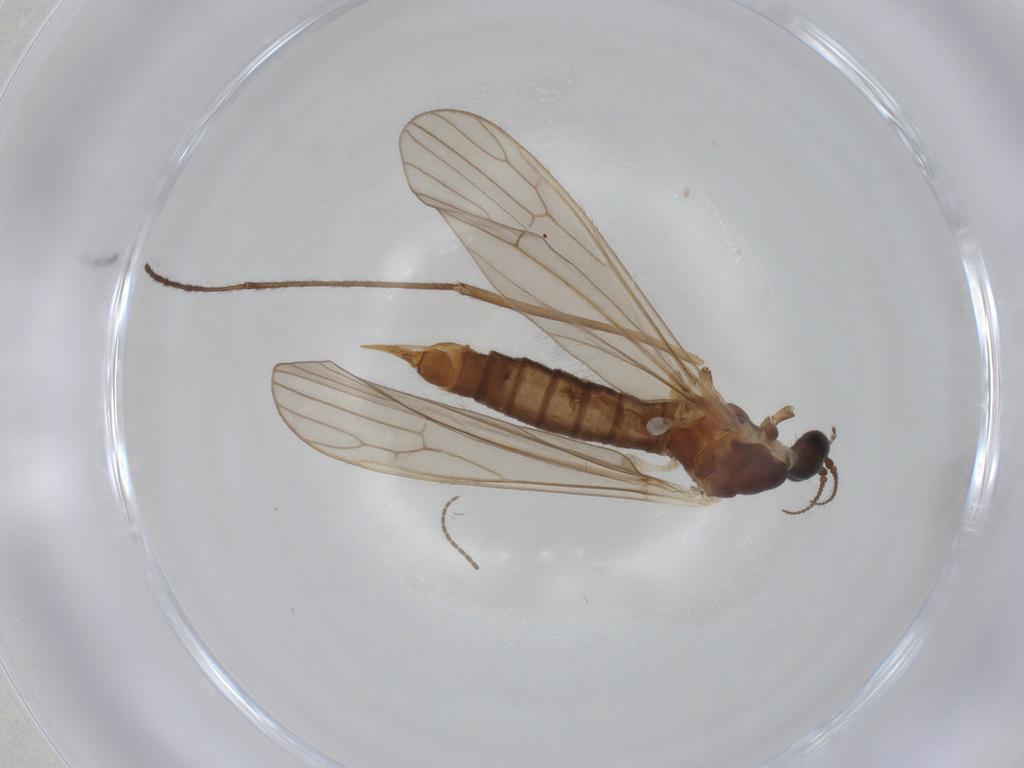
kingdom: Animalia
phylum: Arthropoda
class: Insecta
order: Diptera
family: Limoniidae
